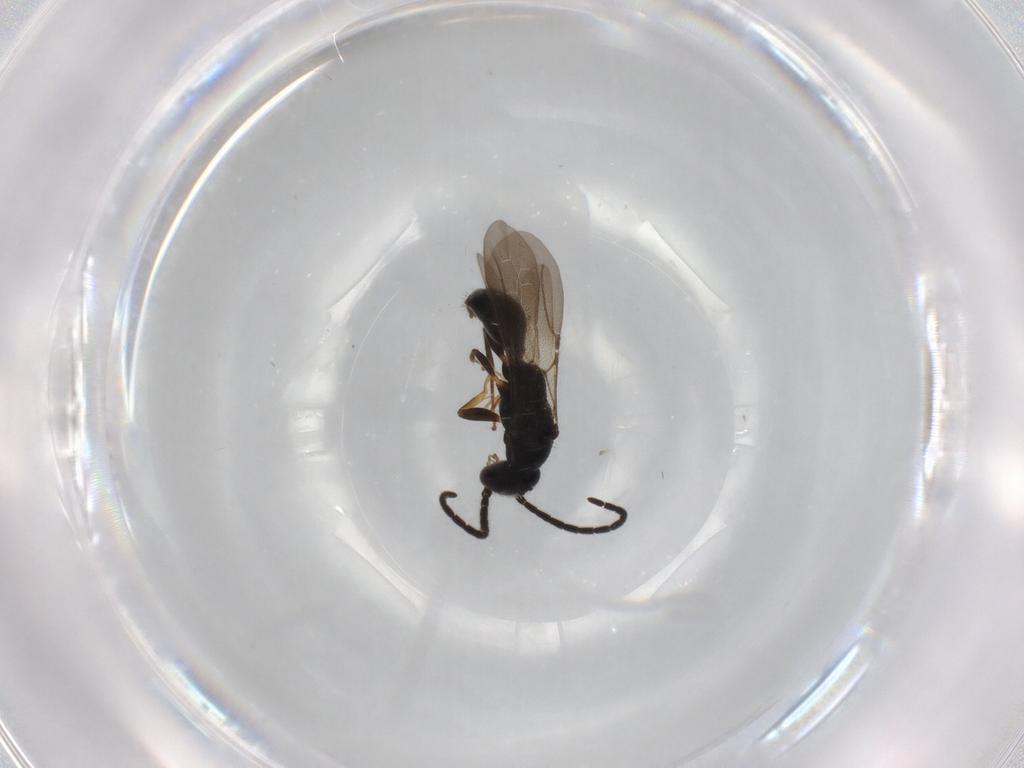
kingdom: Animalia
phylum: Arthropoda
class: Insecta
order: Hymenoptera
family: Bethylidae
